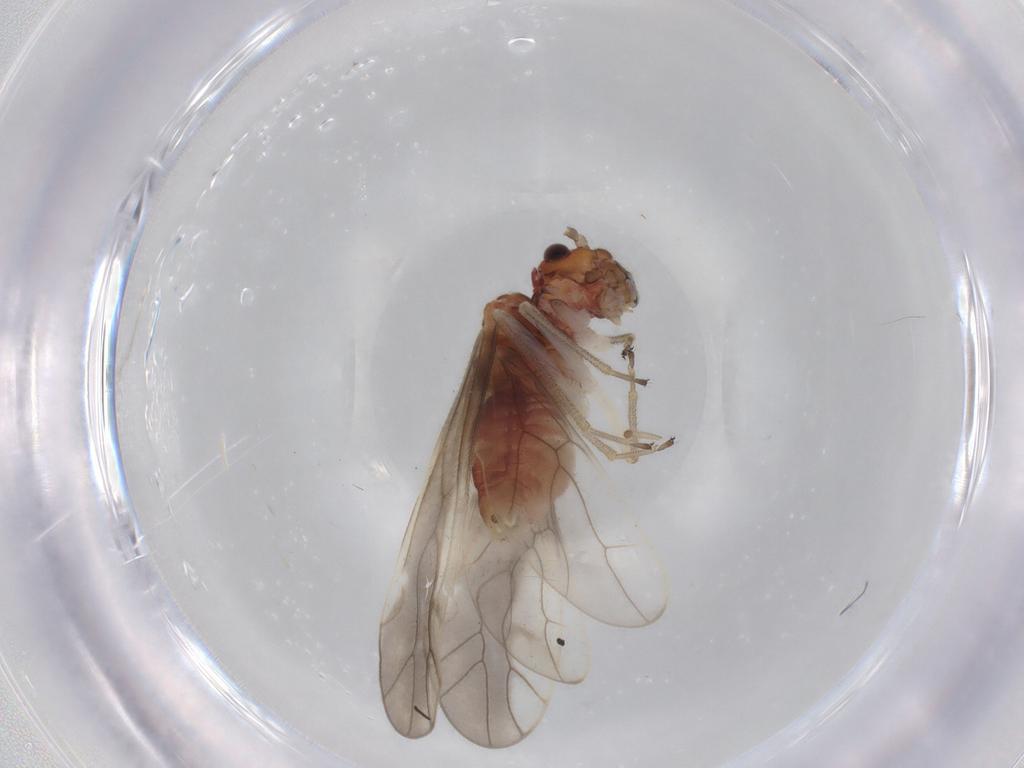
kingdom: Animalia
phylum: Arthropoda
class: Insecta
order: Psocodea
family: Caeciliusidae
